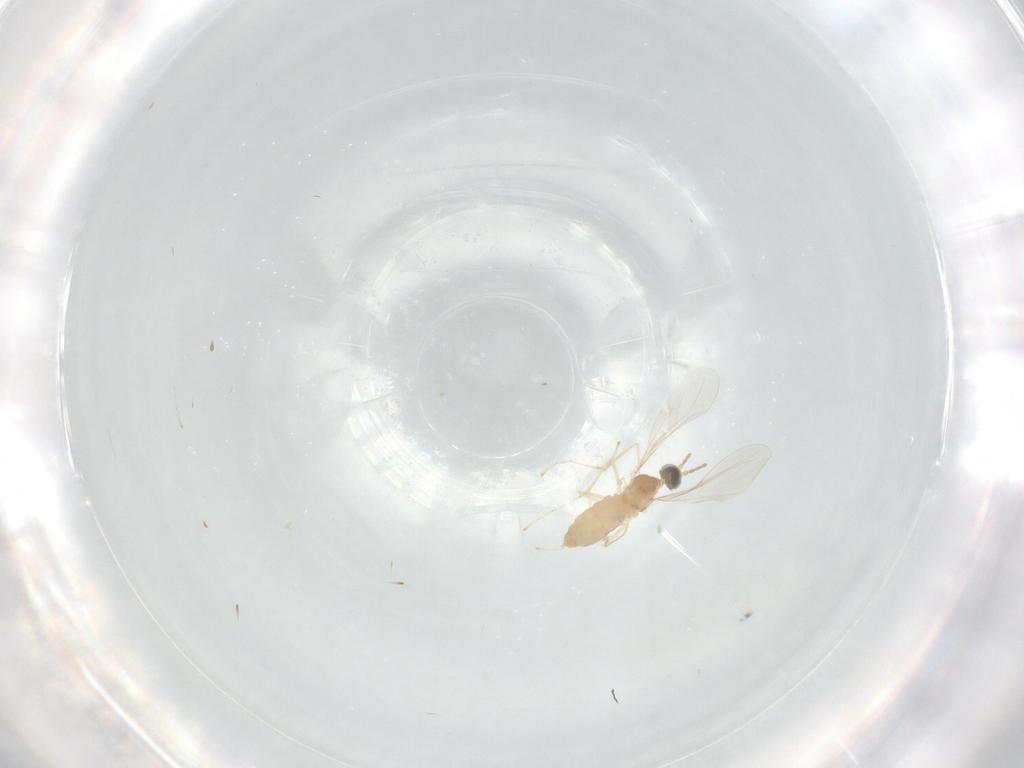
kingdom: Animalia
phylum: Arthropoda
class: Insecta
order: Diptera
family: Cecidomyiidae
